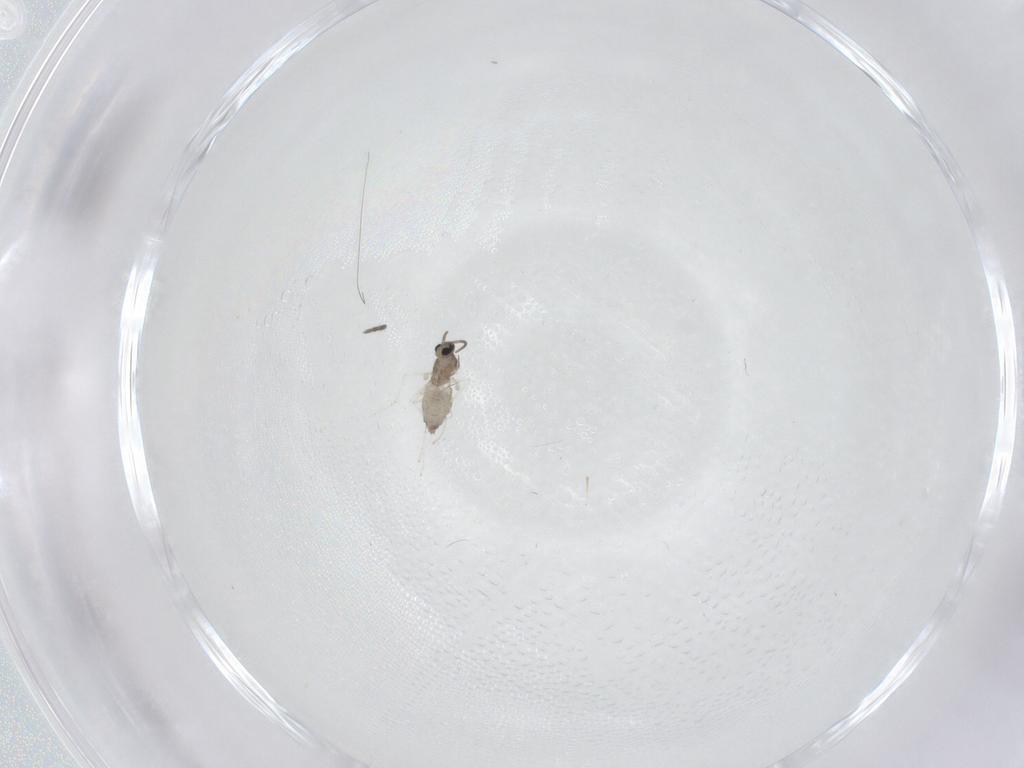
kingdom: Animalia
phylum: Arthropoda
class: Insecta
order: Diptera
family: Cecidomyiidae
